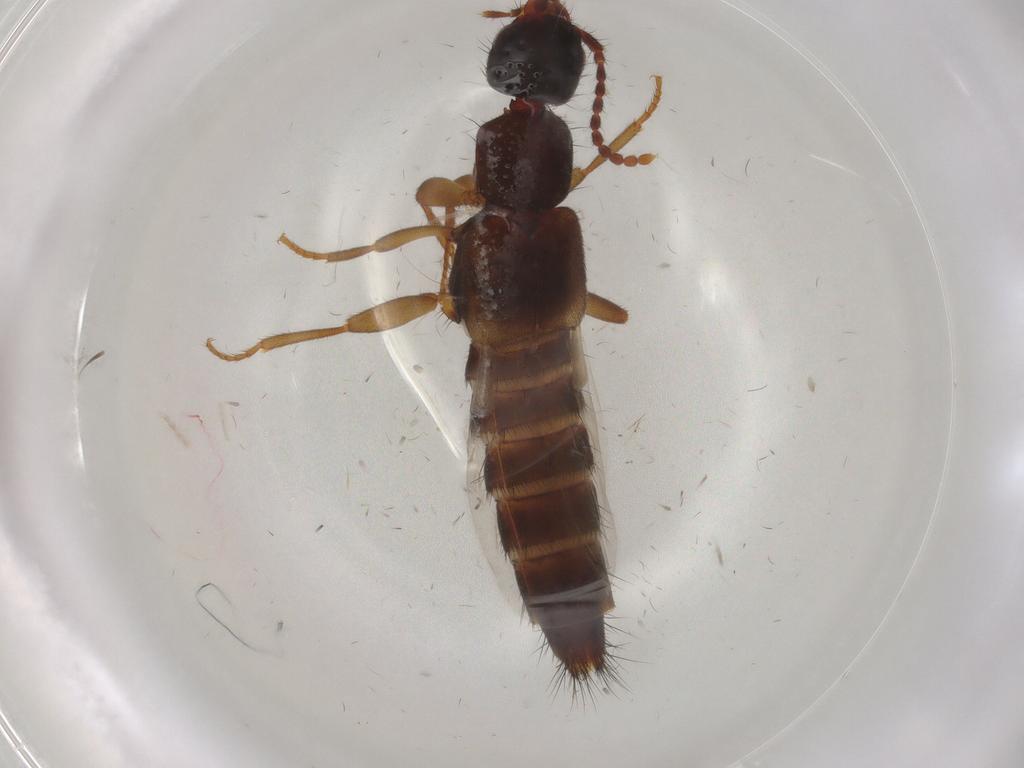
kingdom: Animalia
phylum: Arthropoda
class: Insecta
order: Coleoptera
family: Staphylinidae
